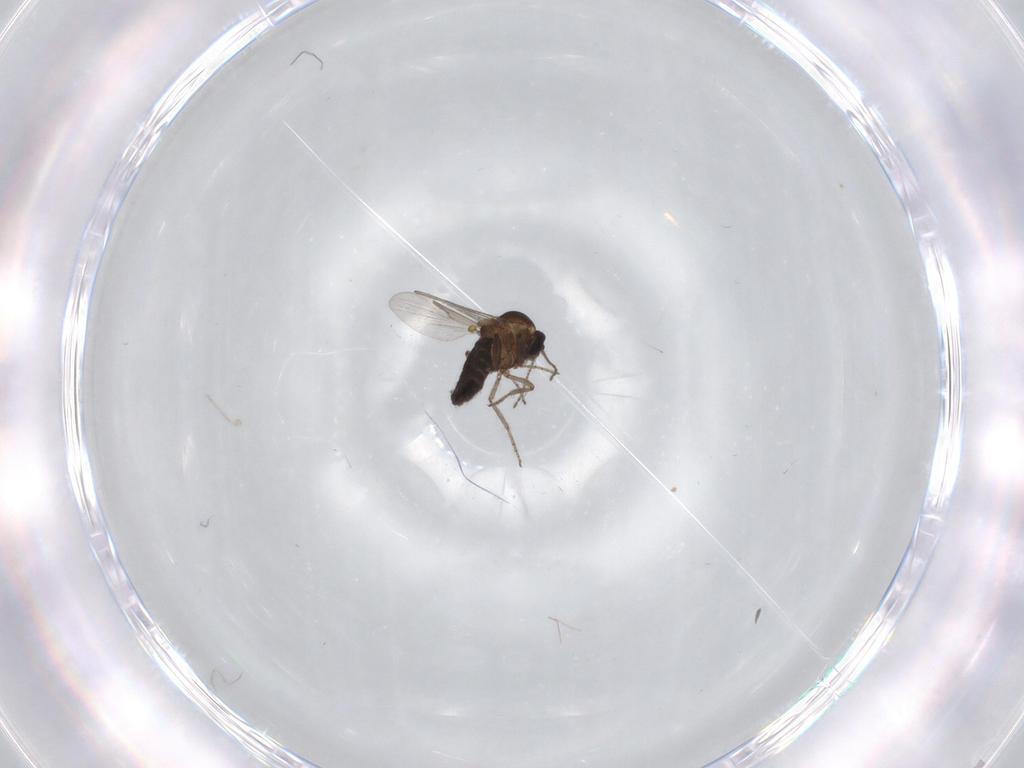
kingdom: Animalia
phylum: Arthropoda
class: Insecta
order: Diptera
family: Ceratopogonidae
